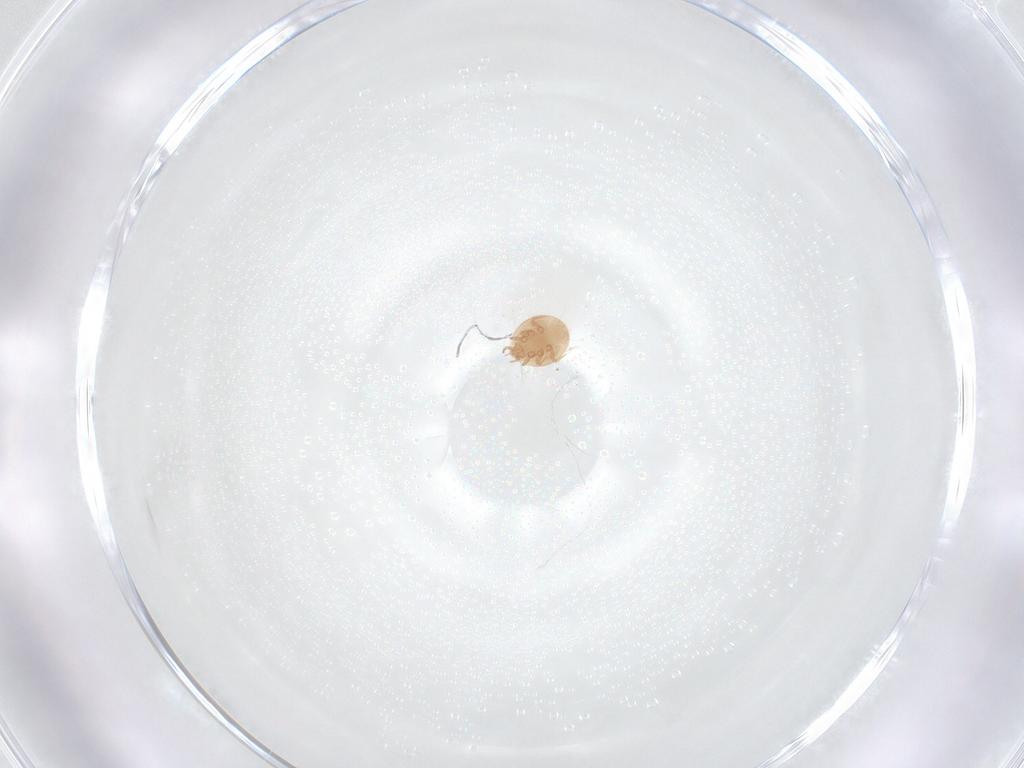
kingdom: Animalia
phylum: Arthropoda
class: Arachnida
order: Mesostigmata
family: Trematuridae
